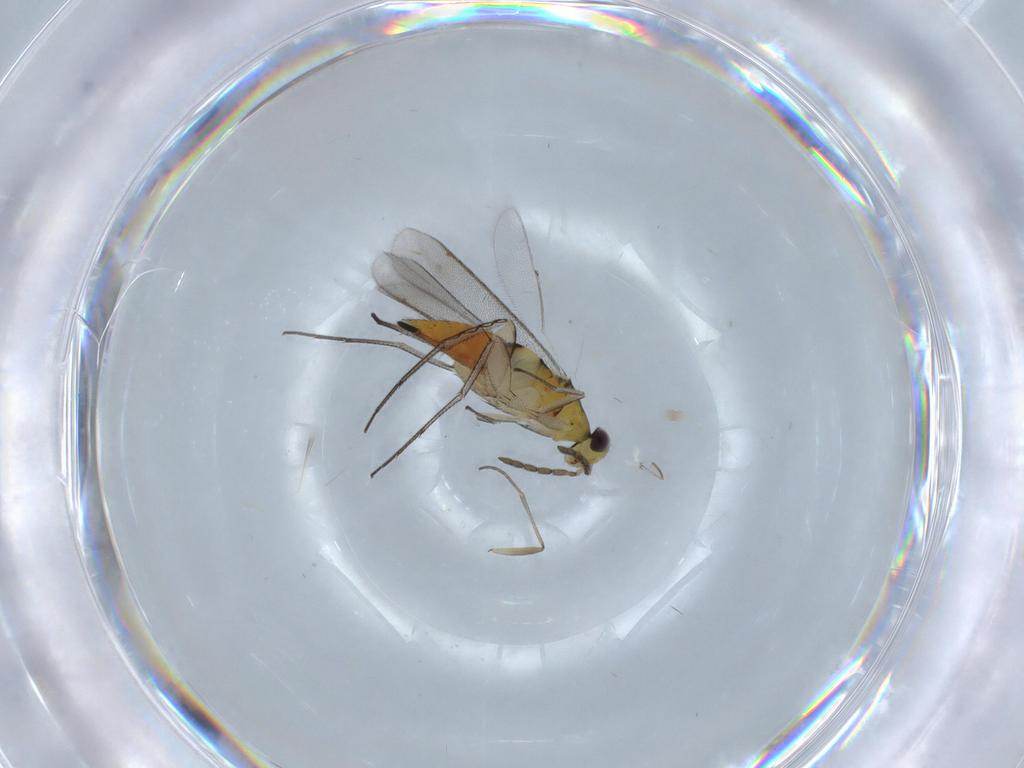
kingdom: Animalia
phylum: Arthropoda
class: Insecta
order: Hymenoptera
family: Eulophidae
